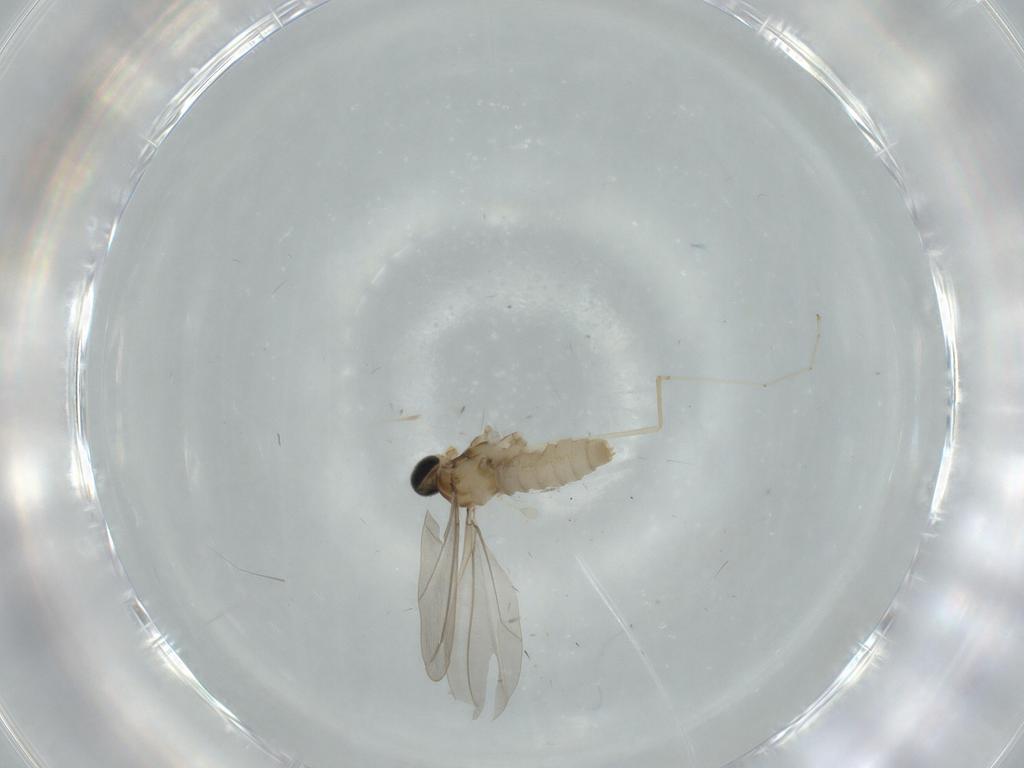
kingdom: Animalia
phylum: Arthropoda
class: Insecta
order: Diptera
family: Cecidomyiidae
